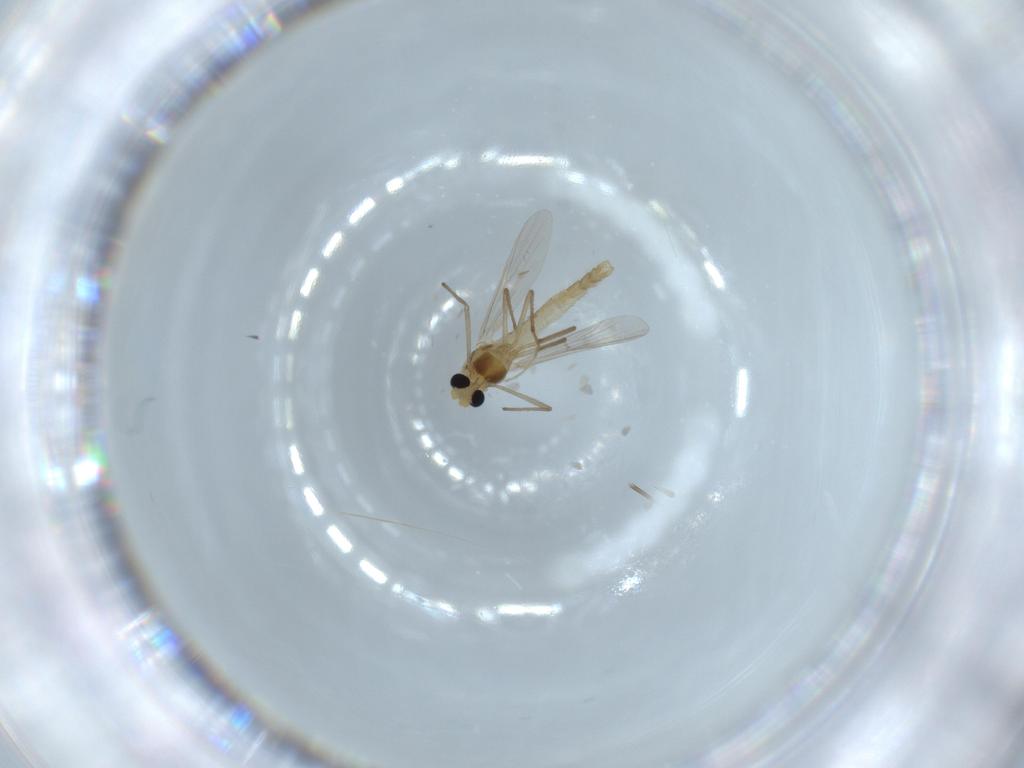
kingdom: Animalia
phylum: Arthropoda
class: Insecta
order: Diptera
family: Chironomidae
